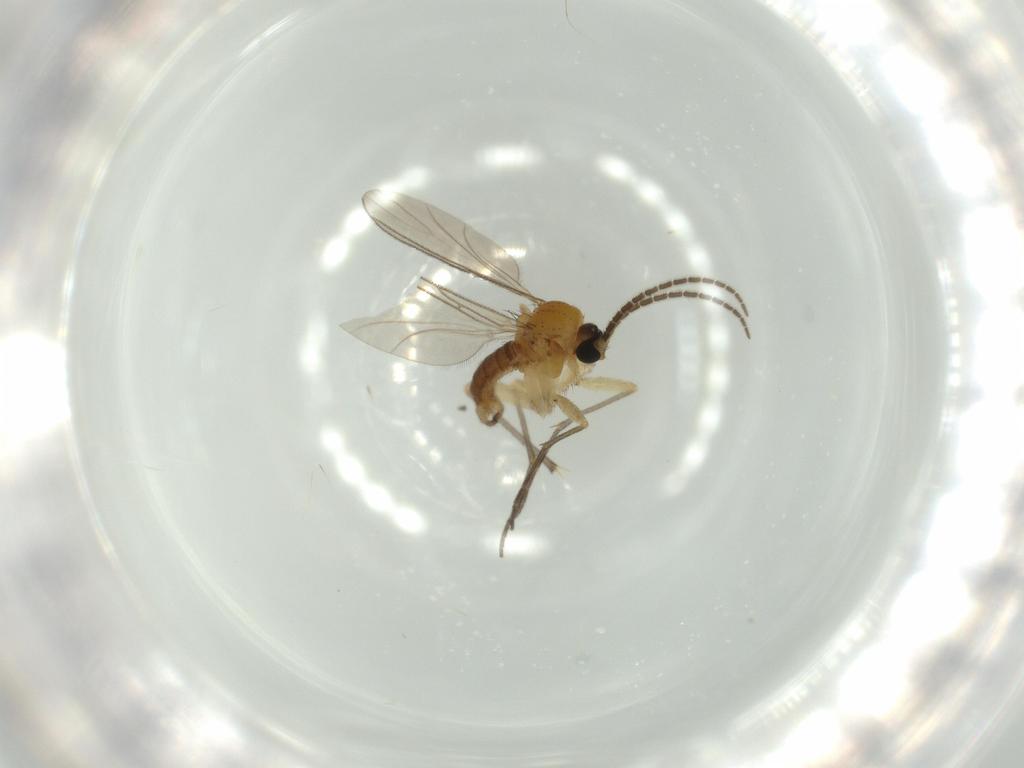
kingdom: Animalia
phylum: Arthropoda
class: Insecta
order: Diptera
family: Sciaridae
